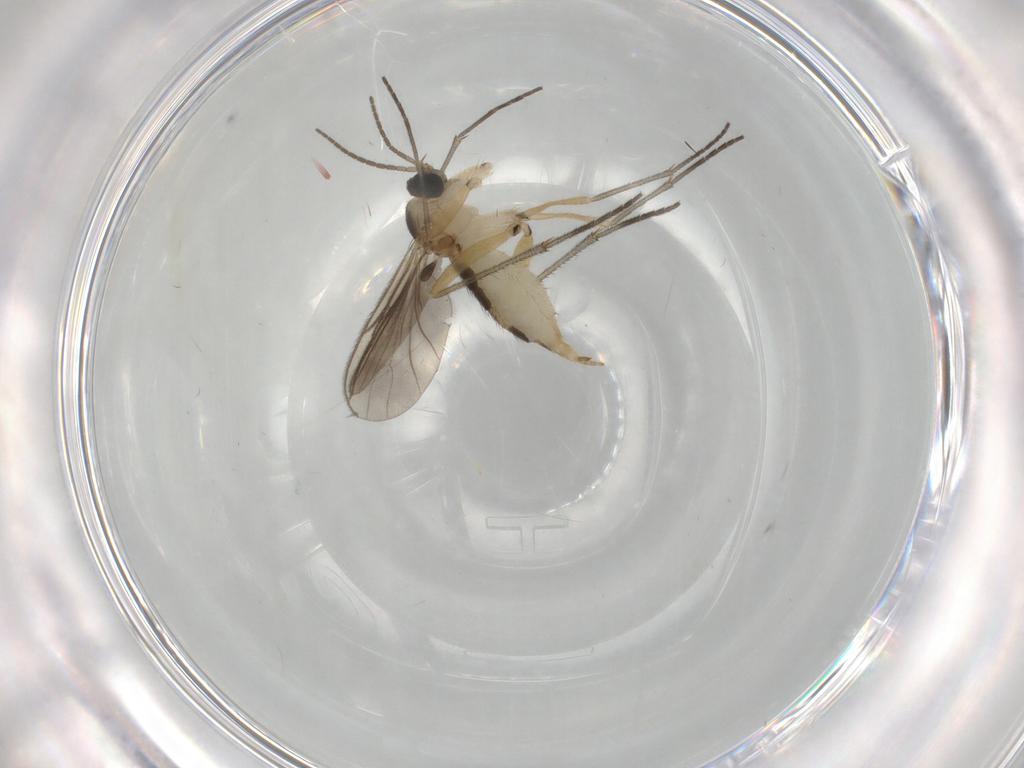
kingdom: Animalia
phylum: Arthropoda
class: Insecta
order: Diptera
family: Sciaridae
